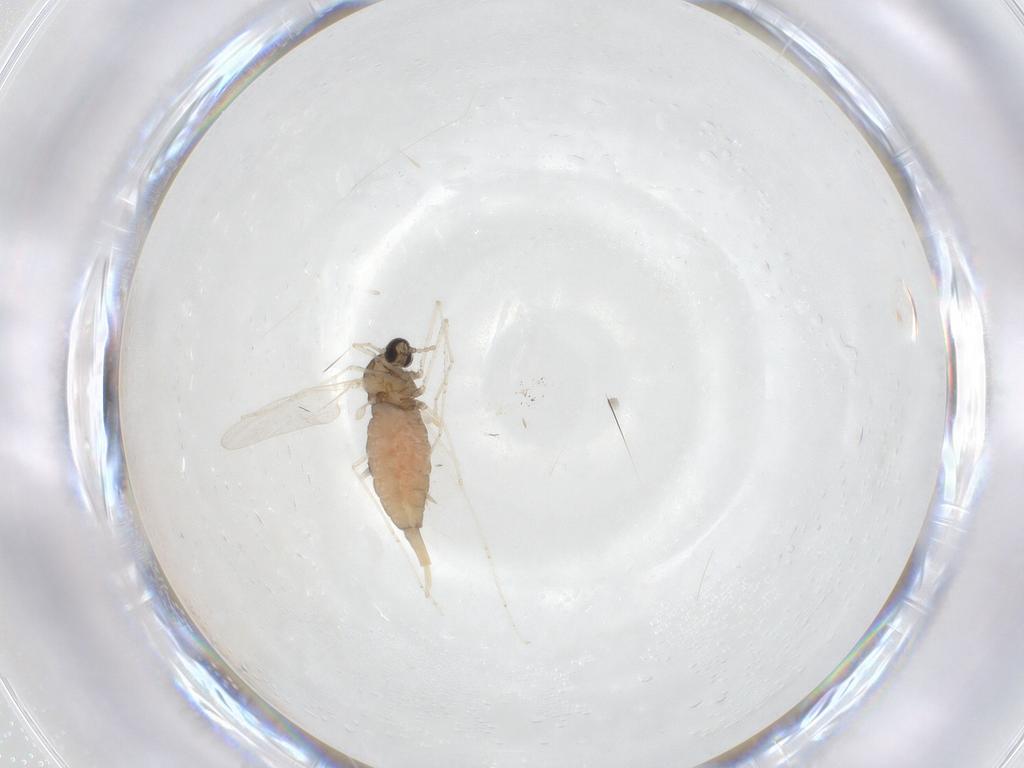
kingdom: Animalia
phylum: Arthropoda
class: Insecta
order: Diptera
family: Cecidomyiidae
